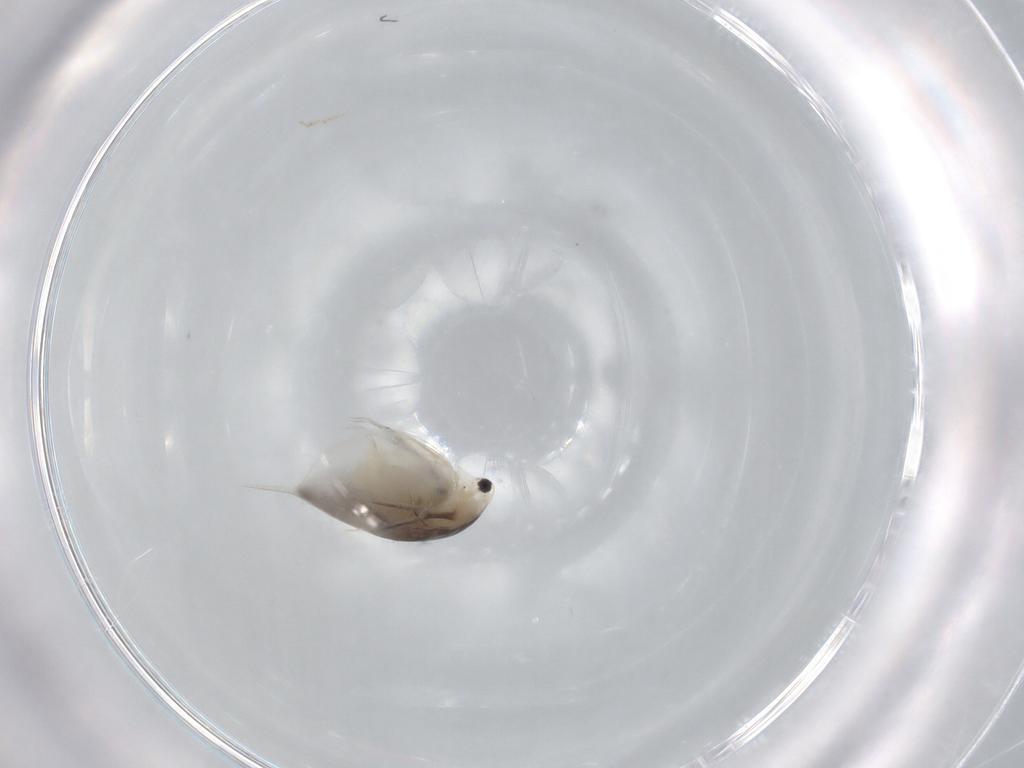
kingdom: Animalia
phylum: Arthropoda
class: Branchiopoda
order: Diplostraca
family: Daphniidae
